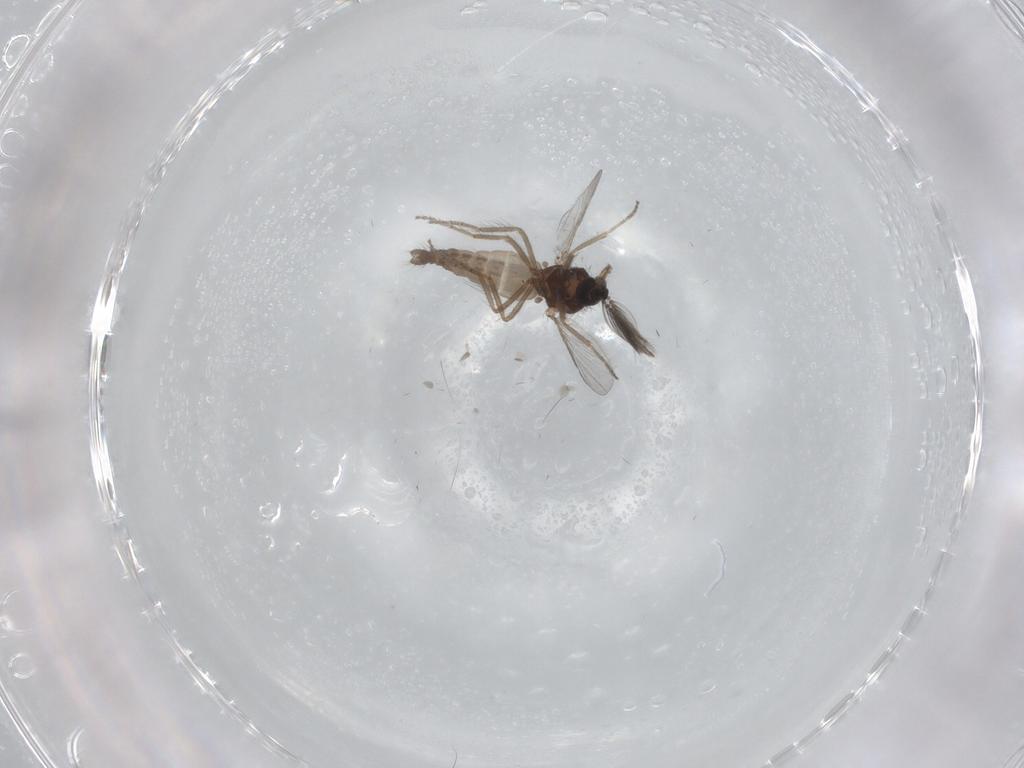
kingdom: Animalia
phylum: Arthropoda
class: Insecta
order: Diptera
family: Ceratopogonidae
